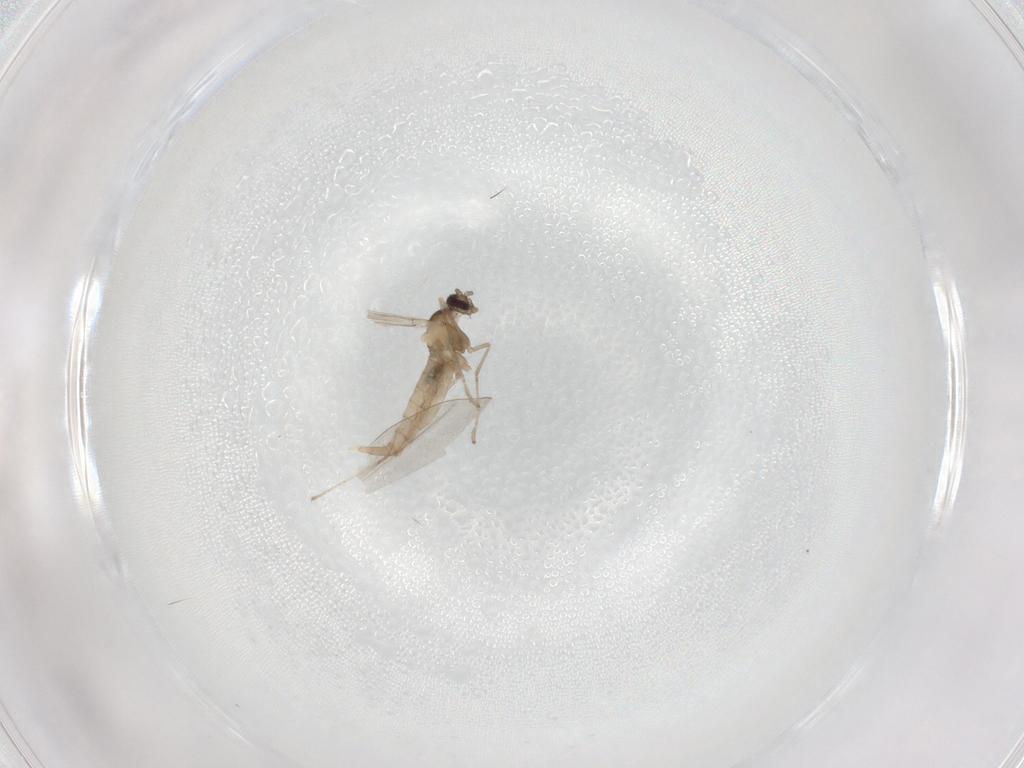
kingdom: Animalia
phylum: Arthropoda
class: Insecta
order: Diptera
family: Cecidomyiidae
